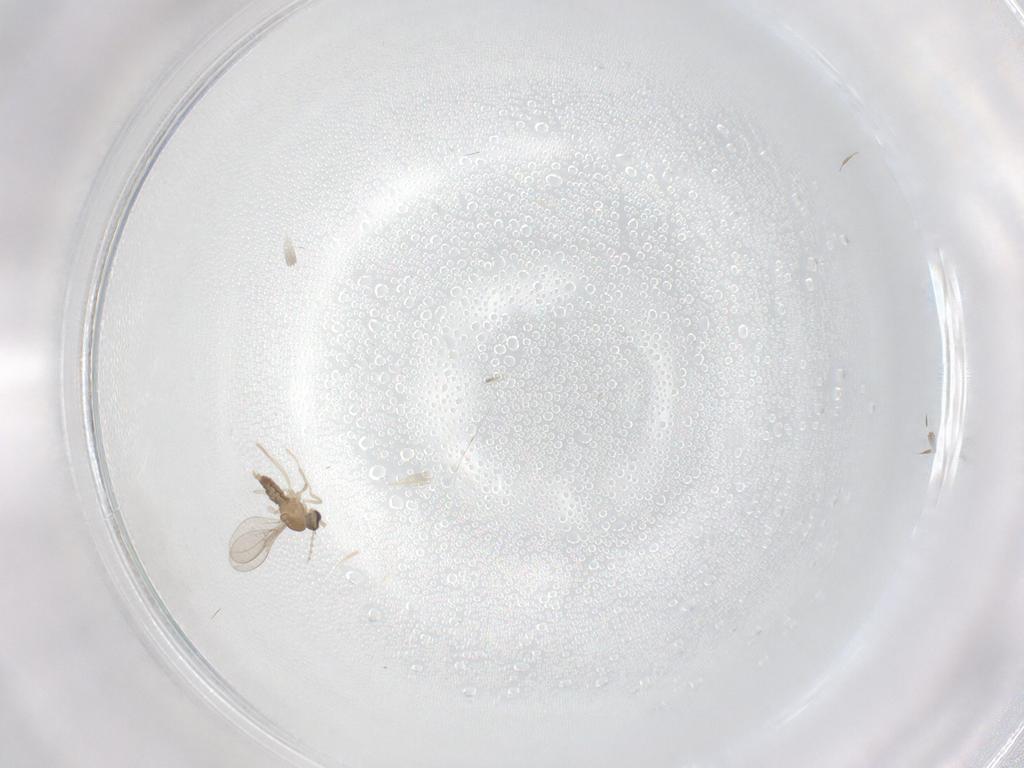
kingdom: Animalia
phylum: Arthropoda
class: Insecta
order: Diptera
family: Cecidomyiidae
